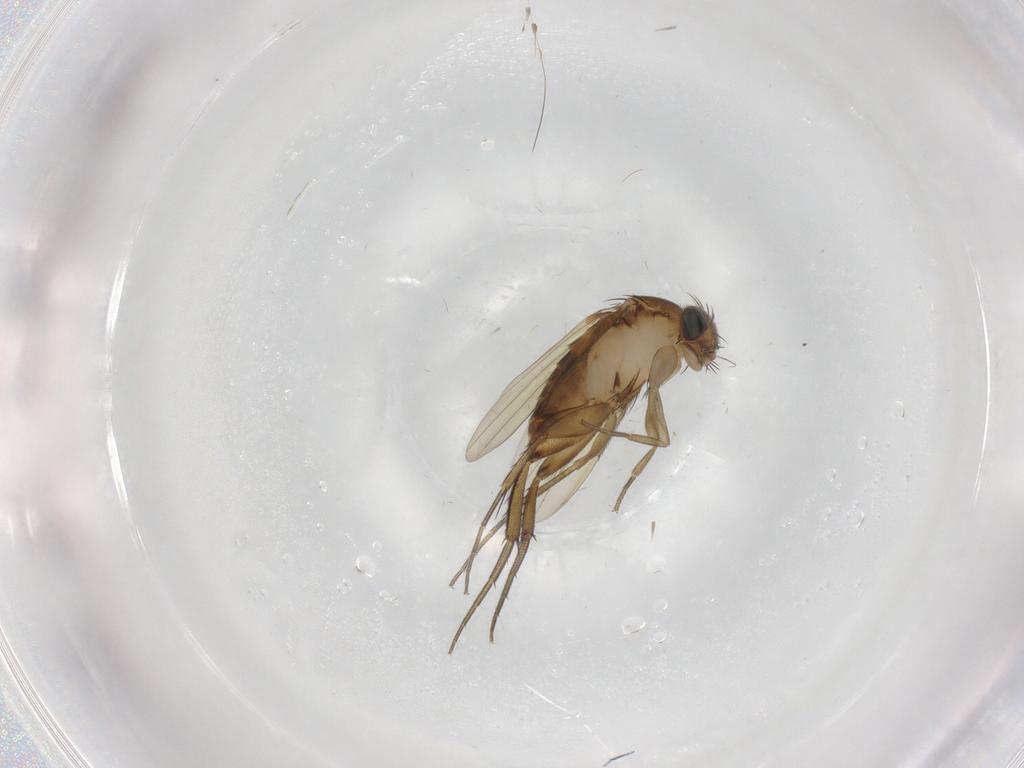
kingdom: Animalia
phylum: Arthropoda
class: Insecta
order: Diptera
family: Phoridae
